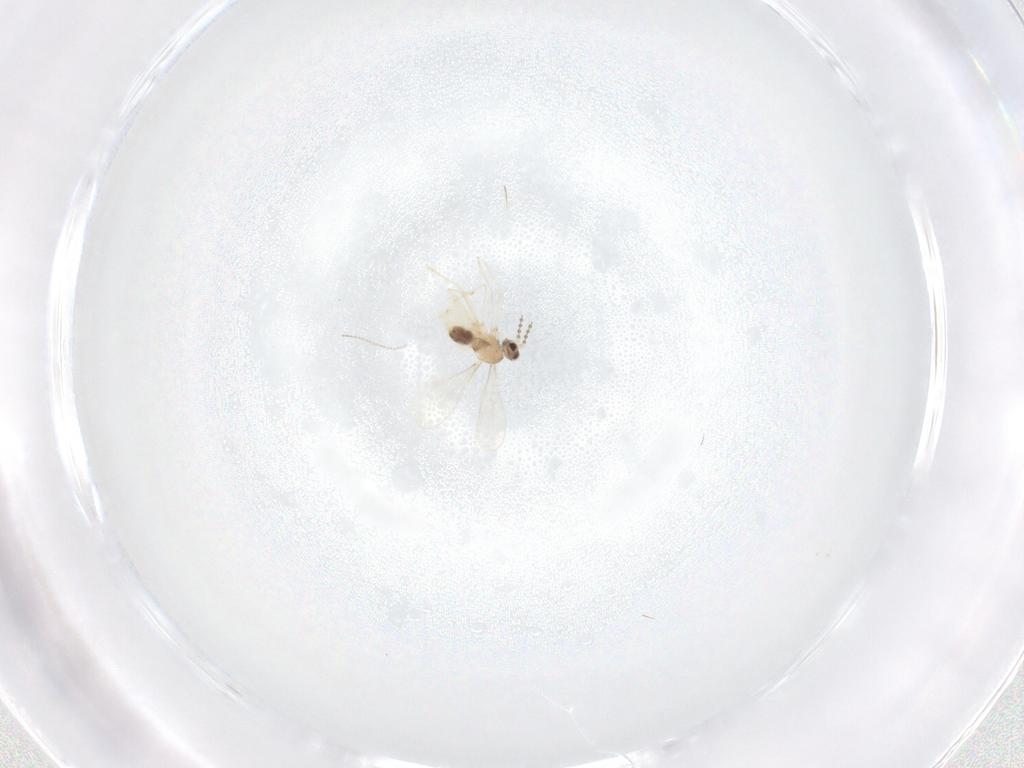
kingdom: Animalia
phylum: Arthropoda
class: Insecta
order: Diptera
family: Cecidomyiidae
